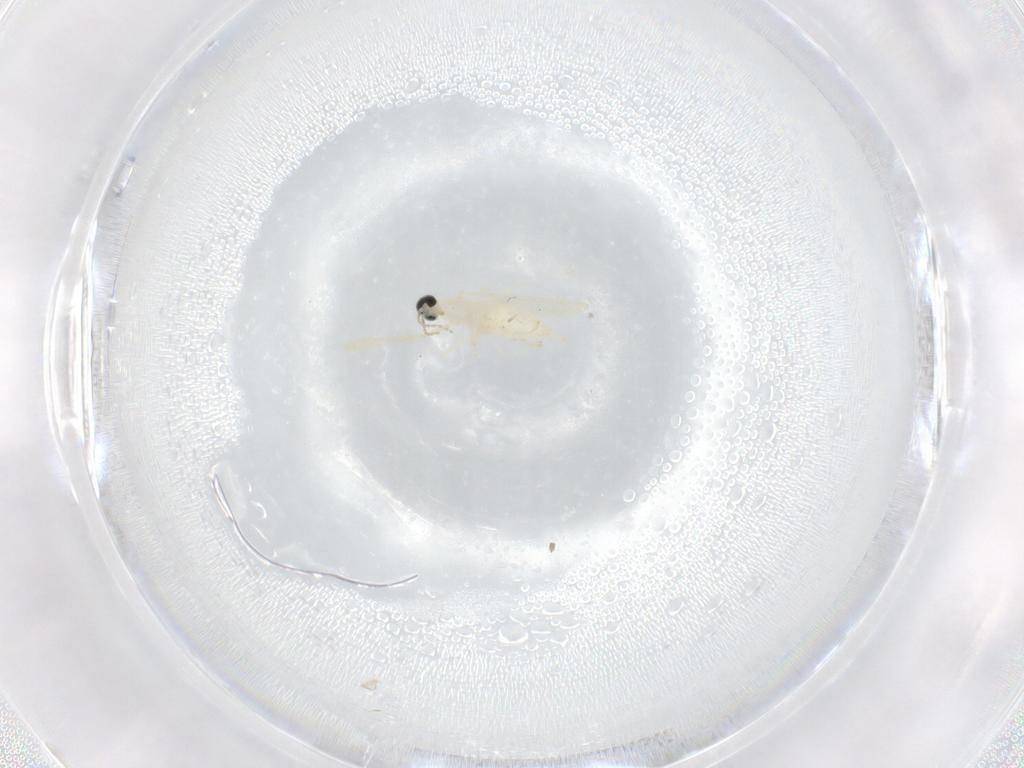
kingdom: Animalia
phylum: Arthropoda
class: Insecta
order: Diptera
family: Cecidomyiidae
